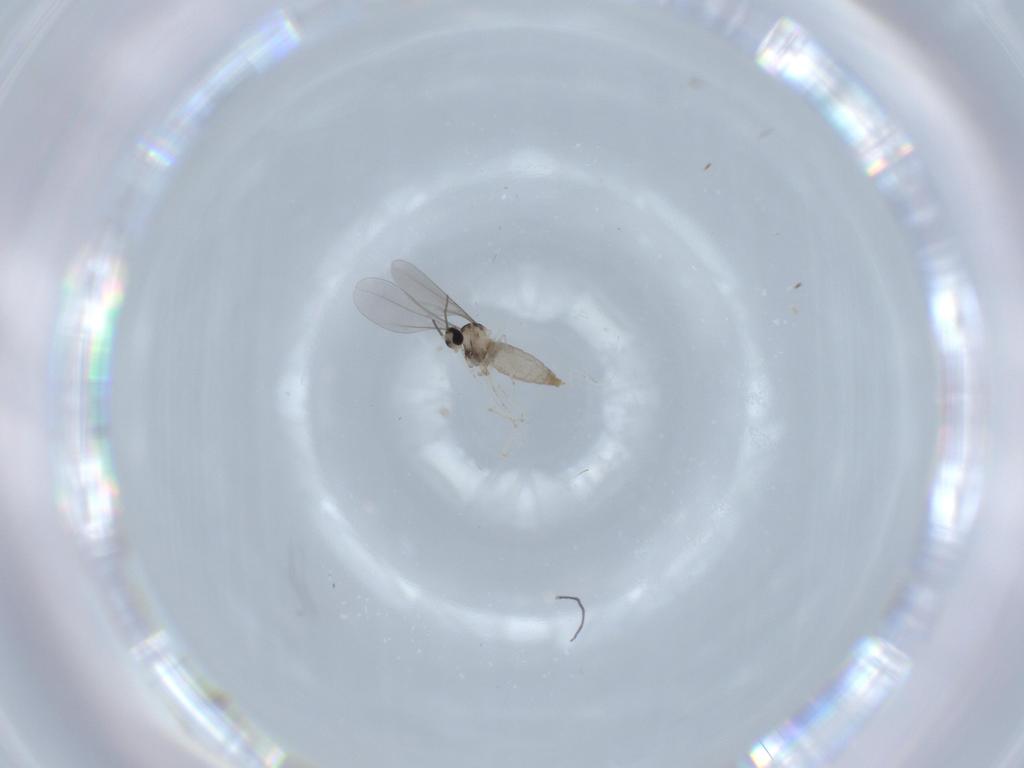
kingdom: Animalia
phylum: Arthropoda
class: Insecta
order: Diptera
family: Cecidomyiidae
